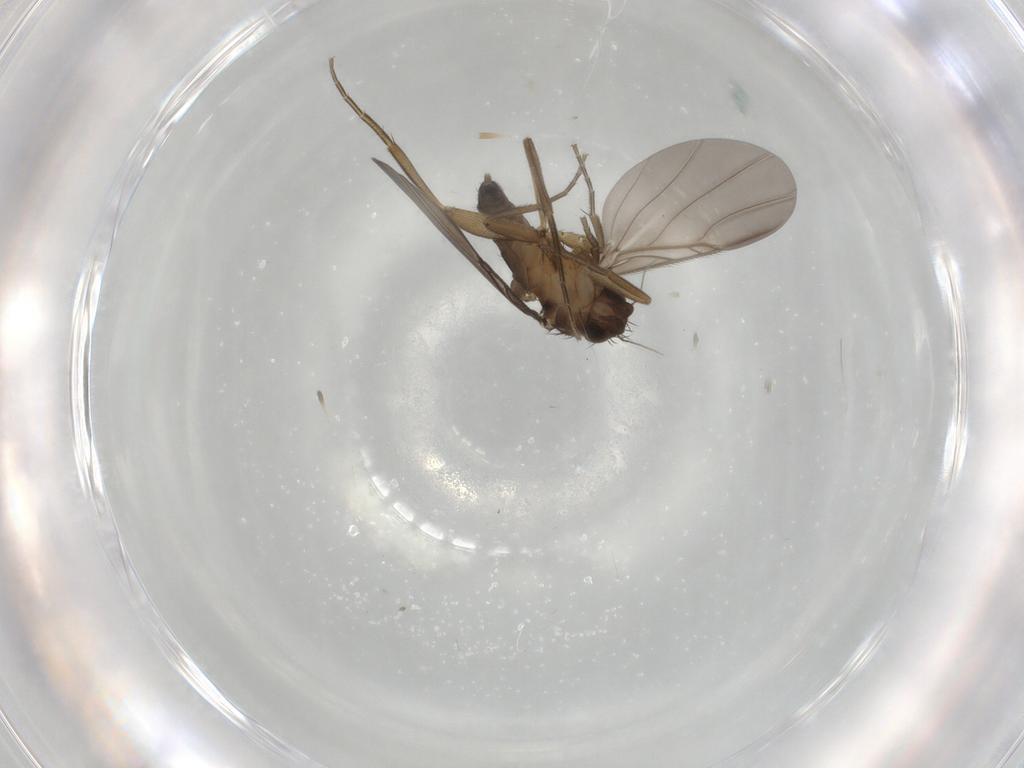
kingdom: Animalia
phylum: Arthropoda
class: Insecta
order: Diptera
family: Phoridae
